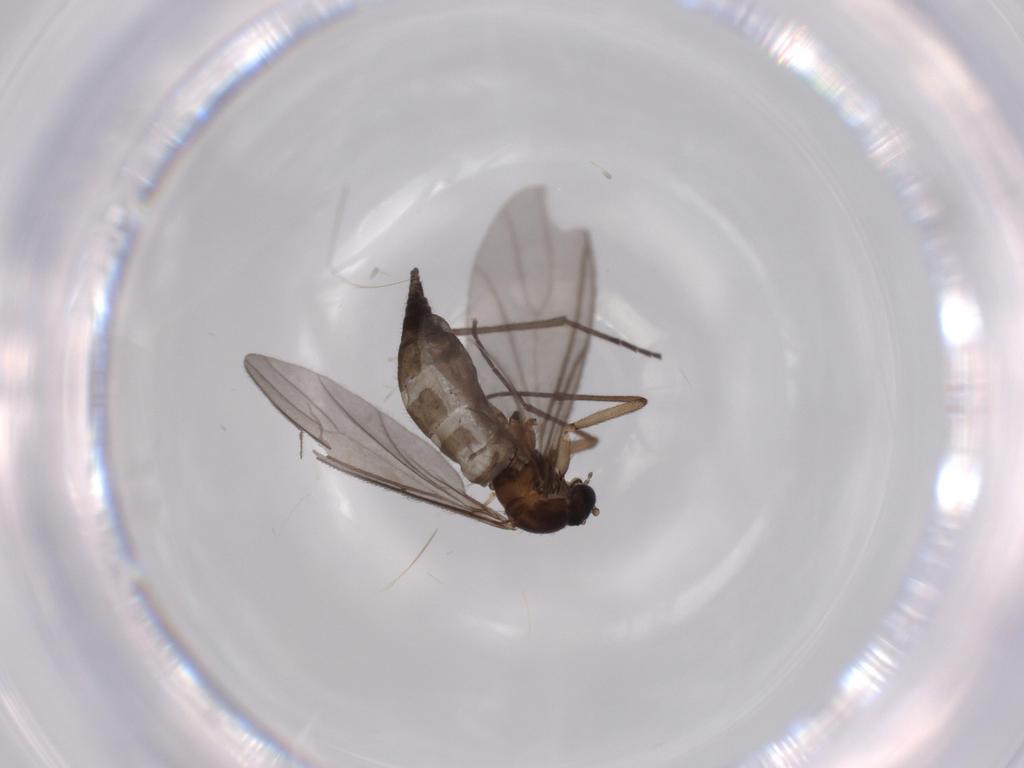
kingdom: Animalia
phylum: Arthropoda
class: Insecta
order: Diptera
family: Sciaridae
